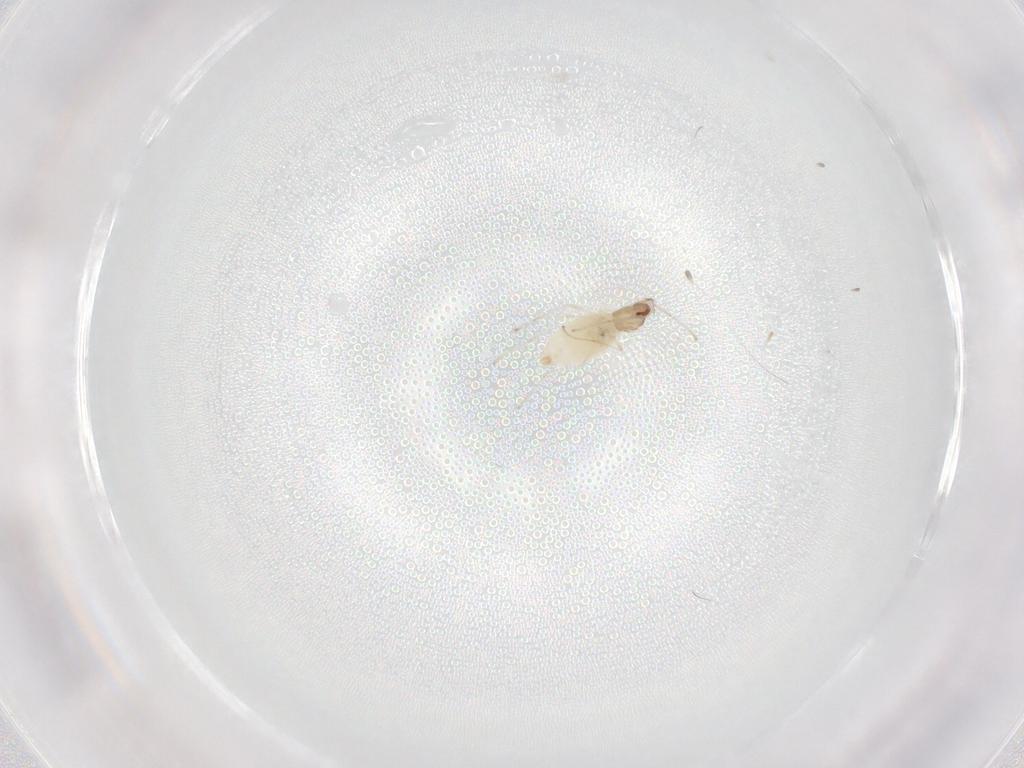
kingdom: Animalia
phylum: Arthropoda
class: Insecta
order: Diptera
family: Cecidomyiidae
